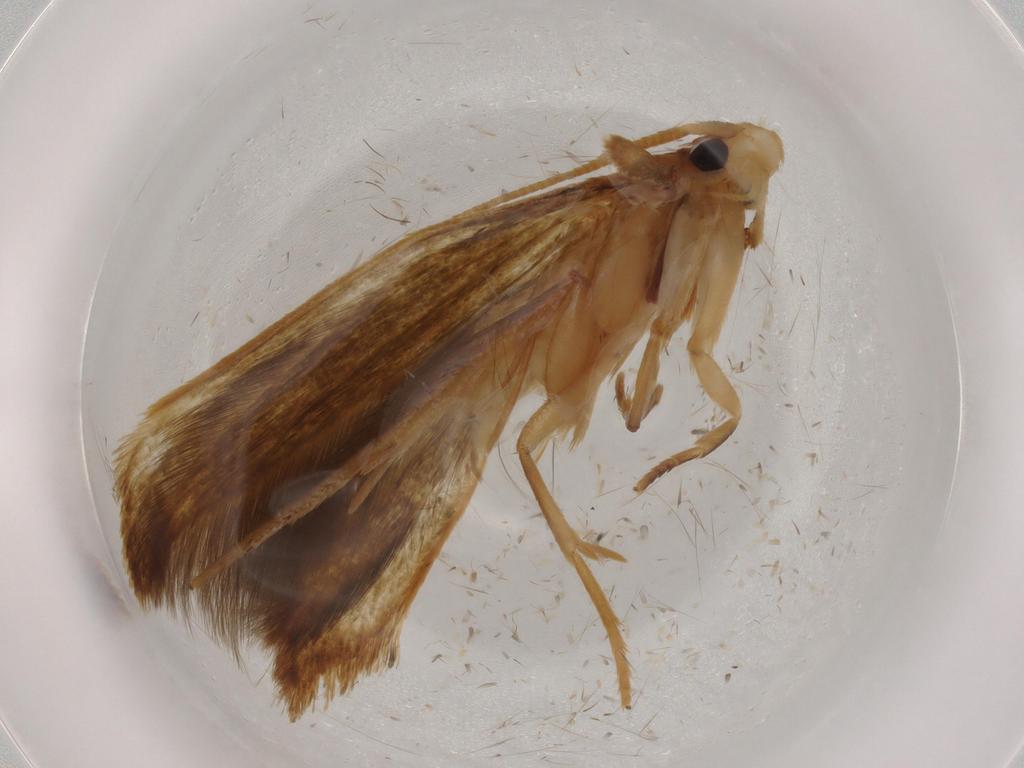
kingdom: Animalia
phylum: Arthropoda
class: Insecta
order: Lepidoptera
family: Tineidae
